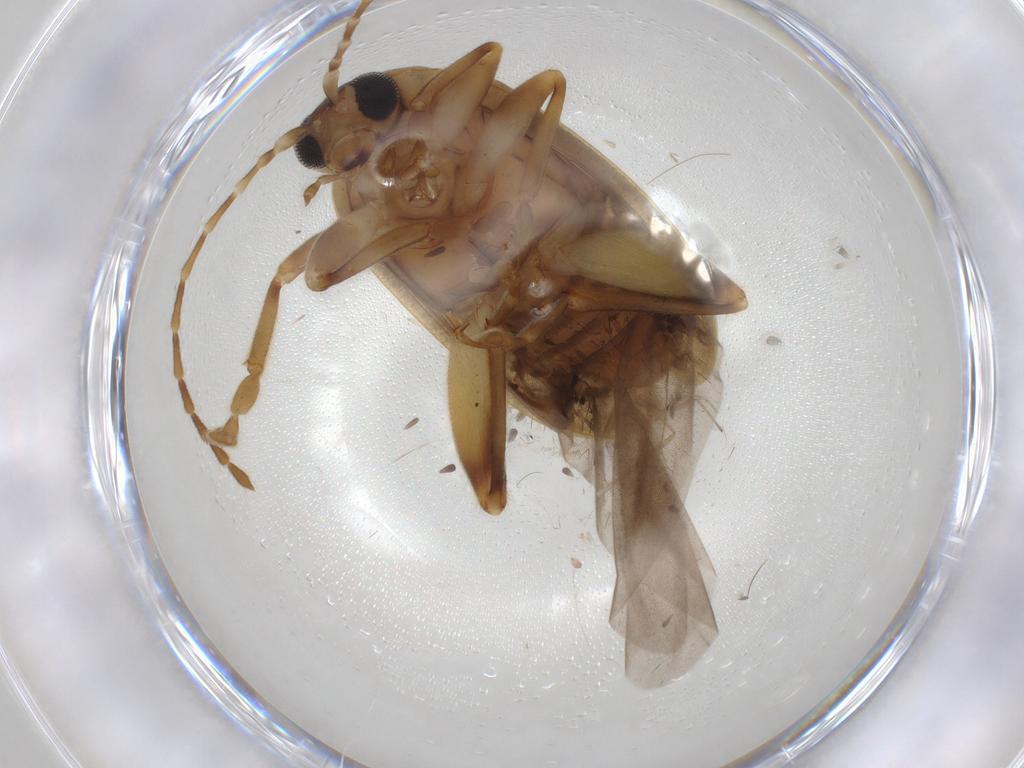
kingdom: Animalia
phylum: Arthropoda
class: Insecta
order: Coleoptera
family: Chrysomelidae
